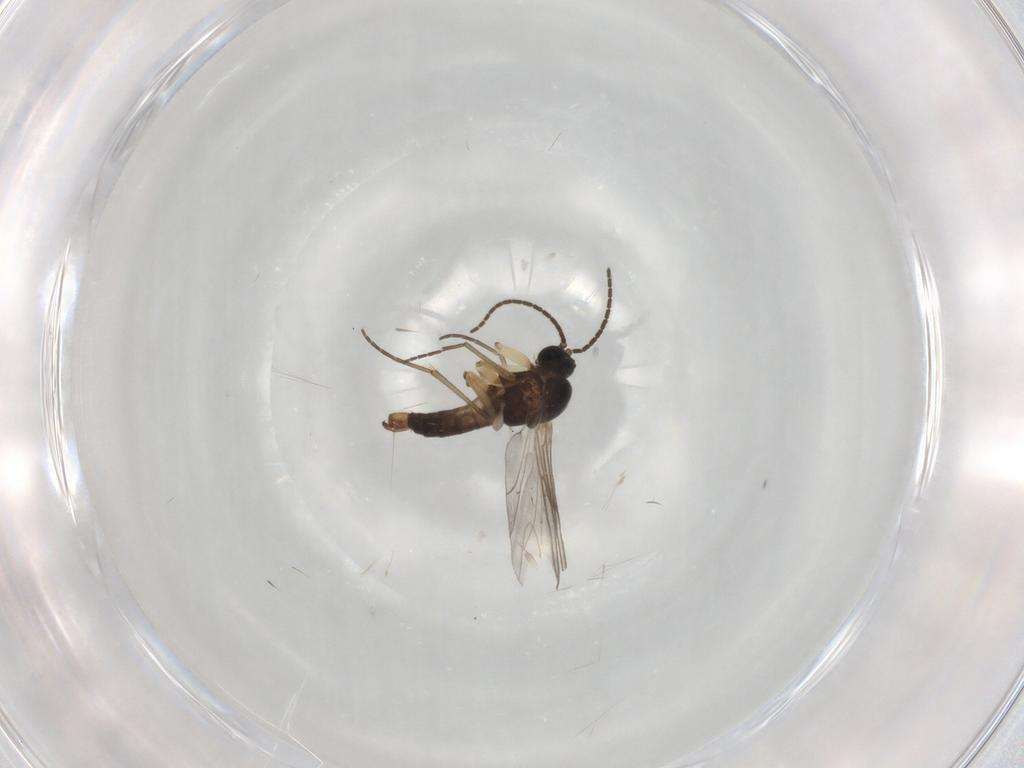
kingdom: Animalia
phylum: Arthropoda
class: Insecta
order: Diptera
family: Sciaridae
